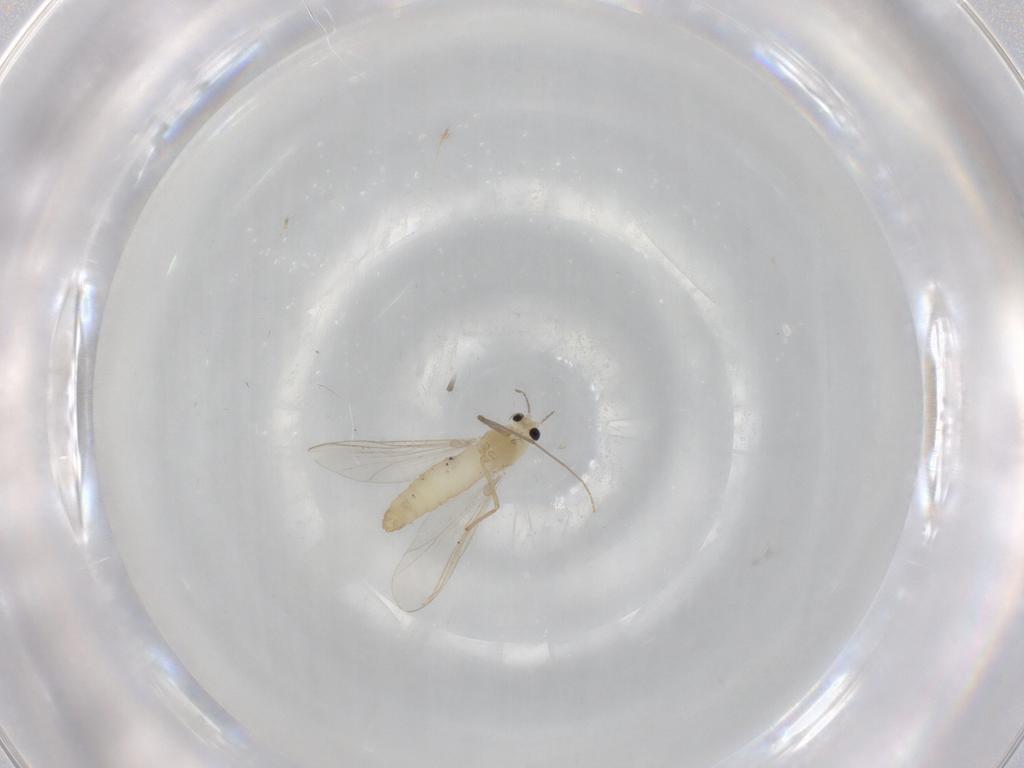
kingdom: Animalia
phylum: Arthropoda
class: Insecta
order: Diptera
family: Chironomidae
